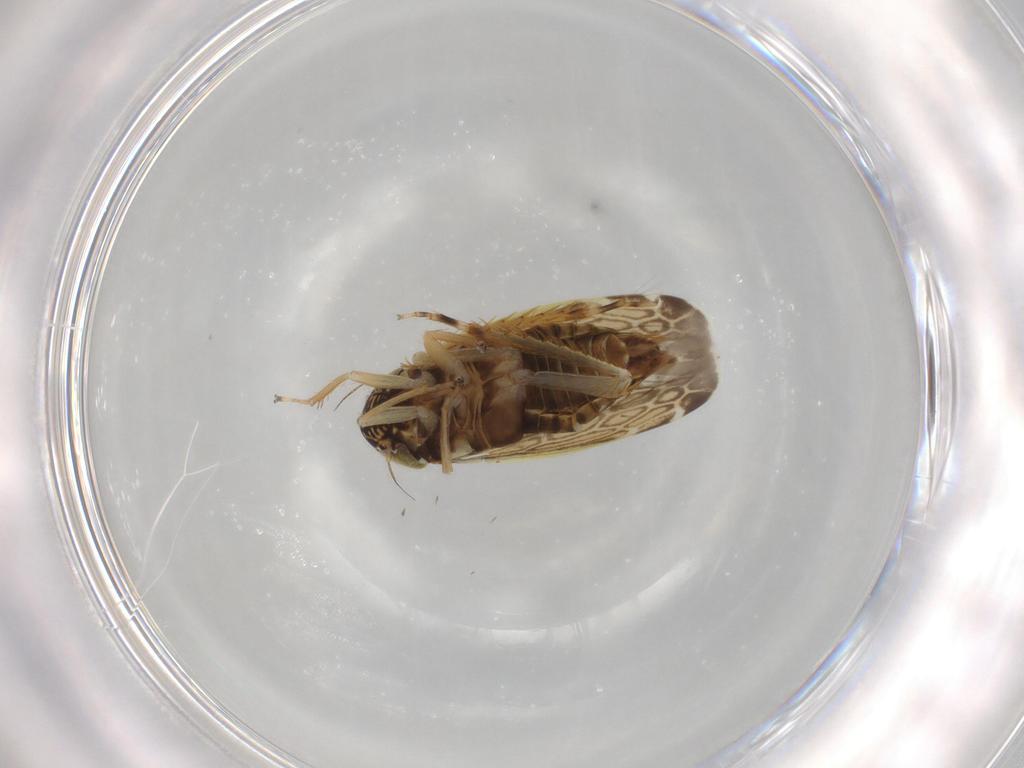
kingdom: Animalia
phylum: Arthropoda
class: Insecta
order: Hemiptera
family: Cicadellidae
